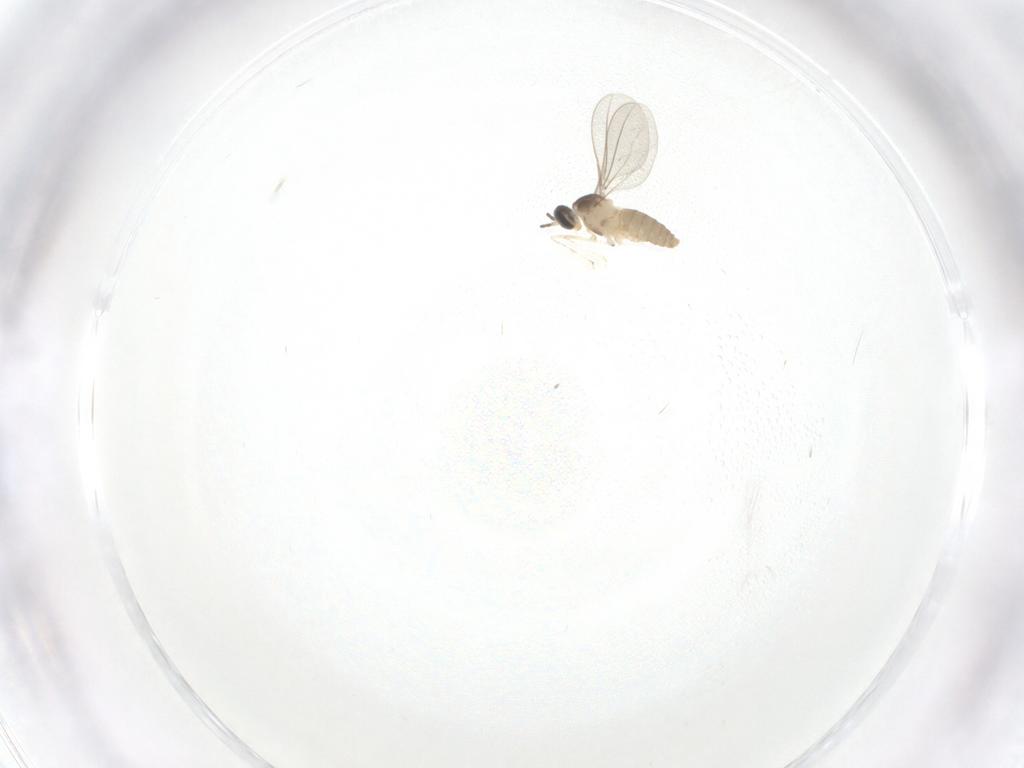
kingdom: Animalia
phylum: Arthropoda
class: Insecta
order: Diptera
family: Cecidomyiidae
